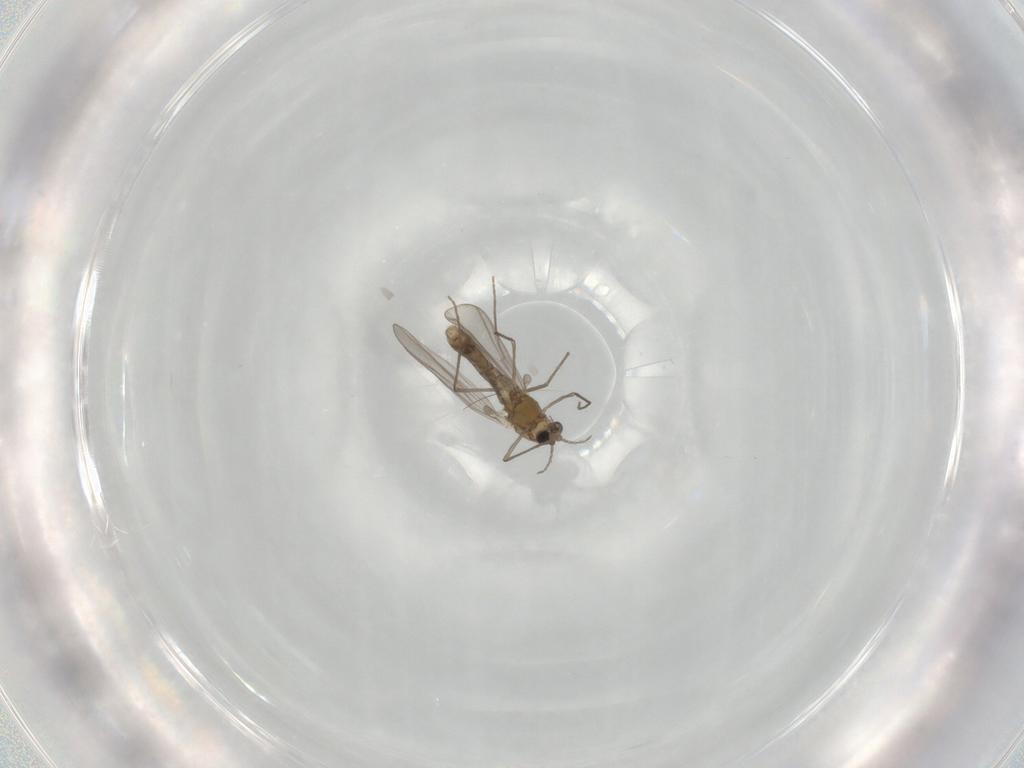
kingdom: Animalia
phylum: Arthropoda
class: Insecta
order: Diptera
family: Chironomidae
